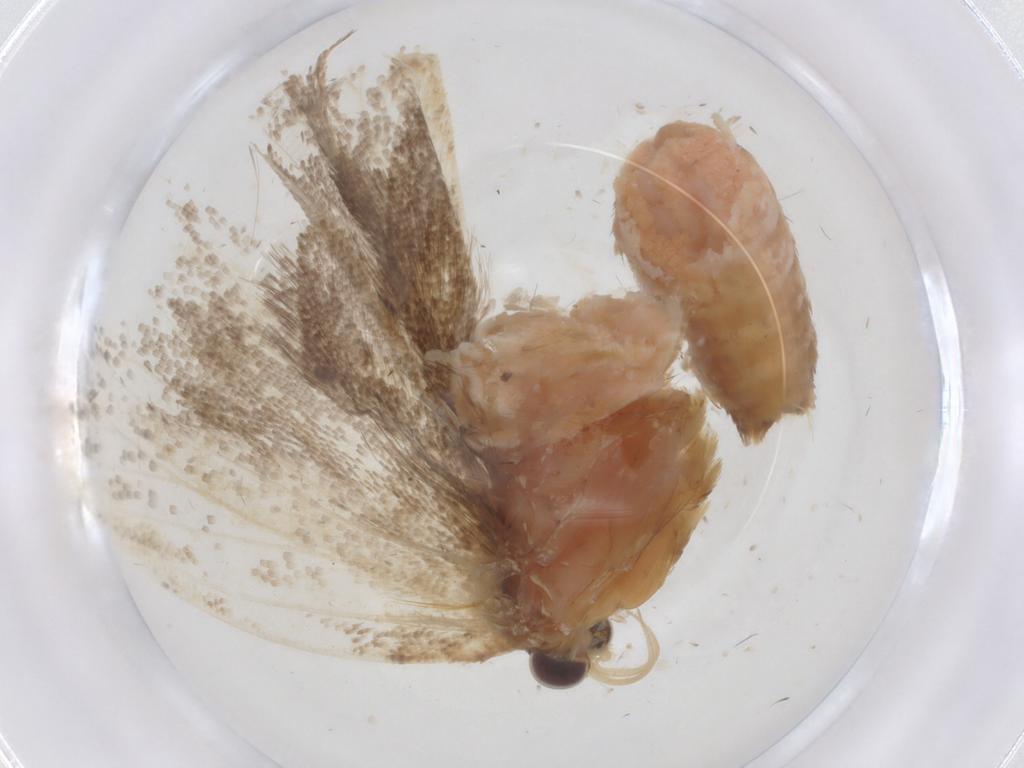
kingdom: Animalia
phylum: Arthropoda
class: Insecta
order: Lepidoptera
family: Tortricidae
